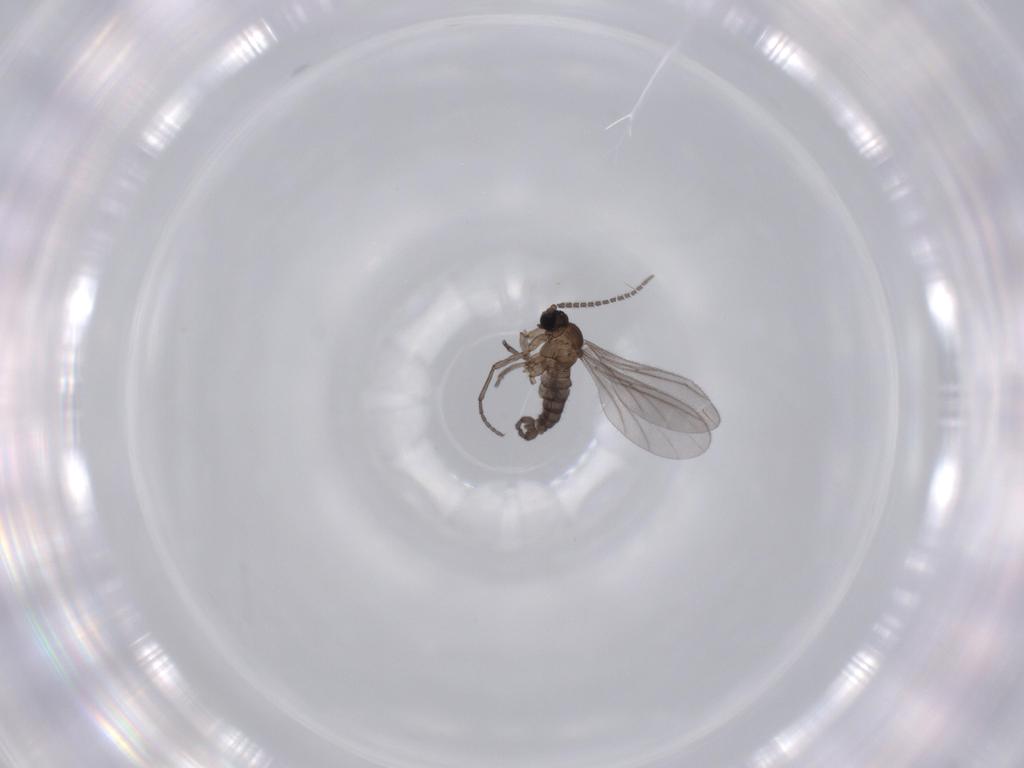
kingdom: Animalia
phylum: Arthropoda
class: Insecta
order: Diptera
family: Sciaridae
